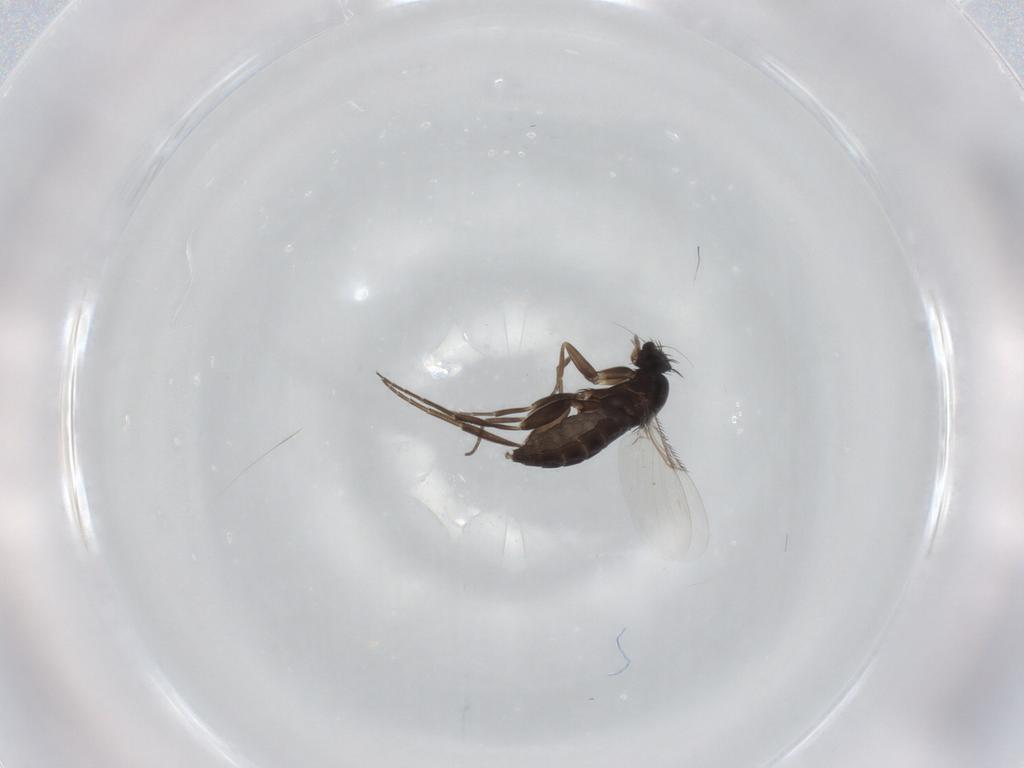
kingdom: Animalia
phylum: Arthropoda
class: Insecta
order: Diptera
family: Phoridae
